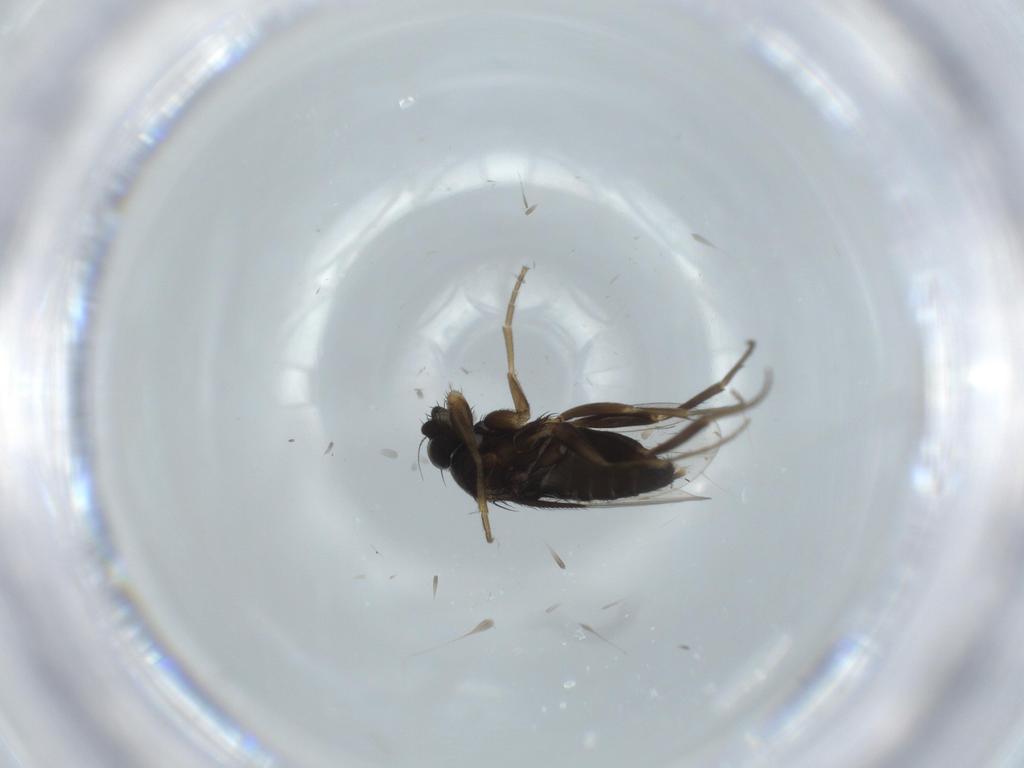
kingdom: Animalia
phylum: Arthropoda
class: Insecta
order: Diptera
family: Phoridae
